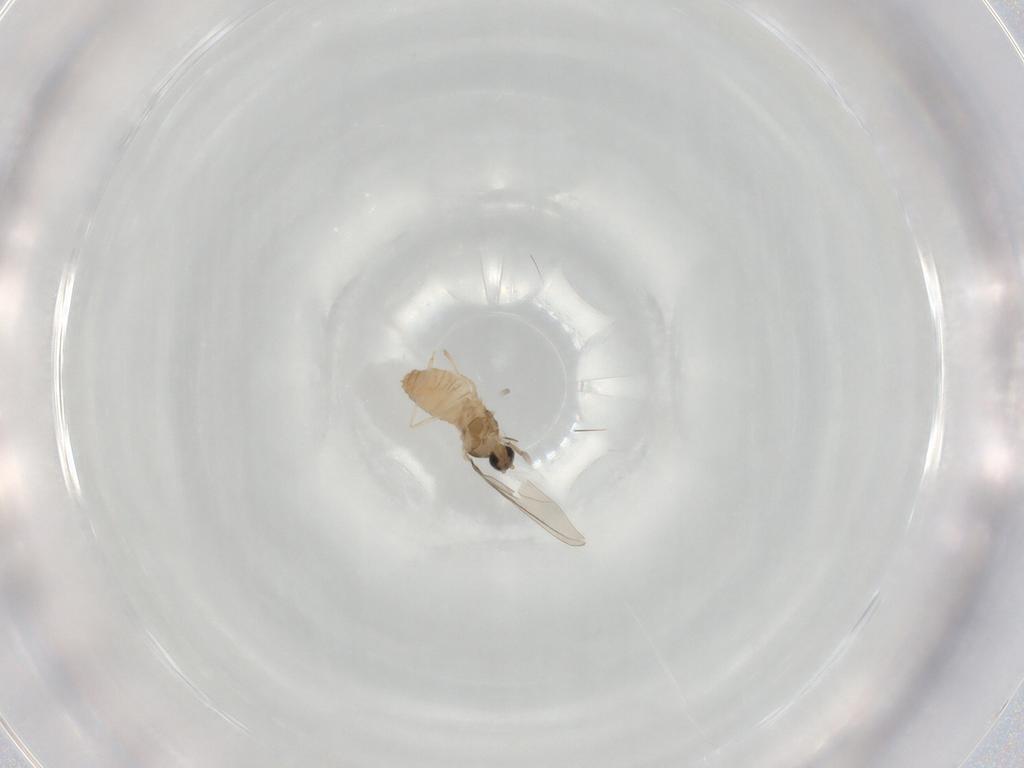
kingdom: Animalia
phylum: Arthropoda
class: Insecta
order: Diptera
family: Cecidomyiidae
